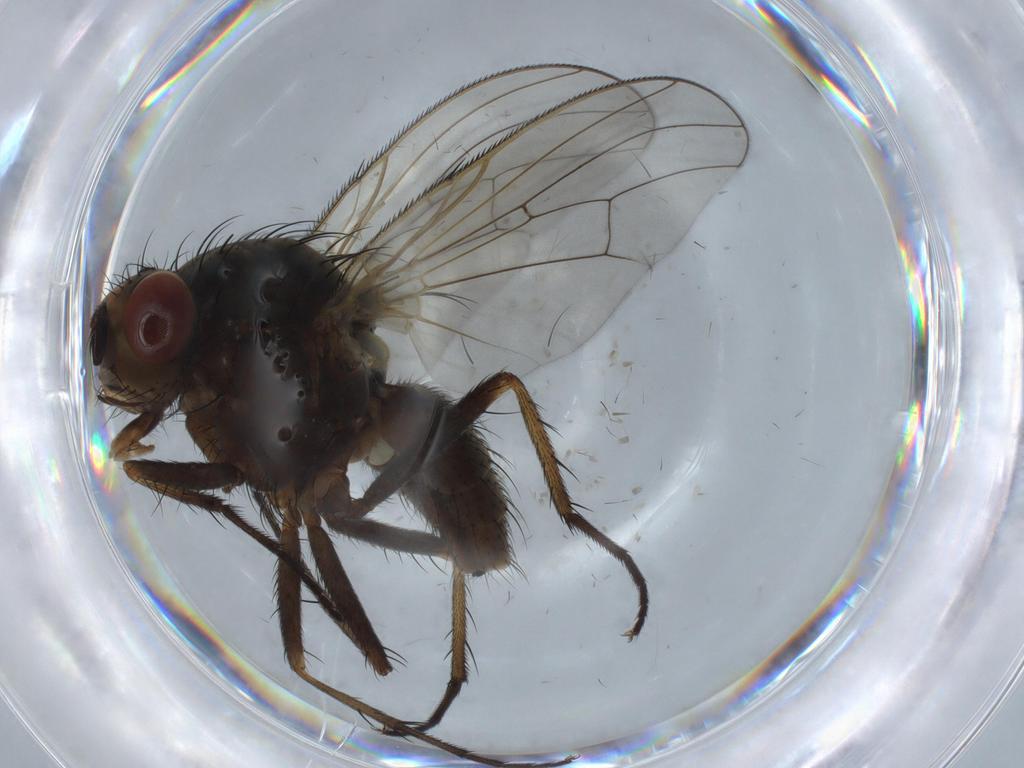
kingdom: Animalia
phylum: Arthropoda
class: Insecta
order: Diptera
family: Anthomyiidae
